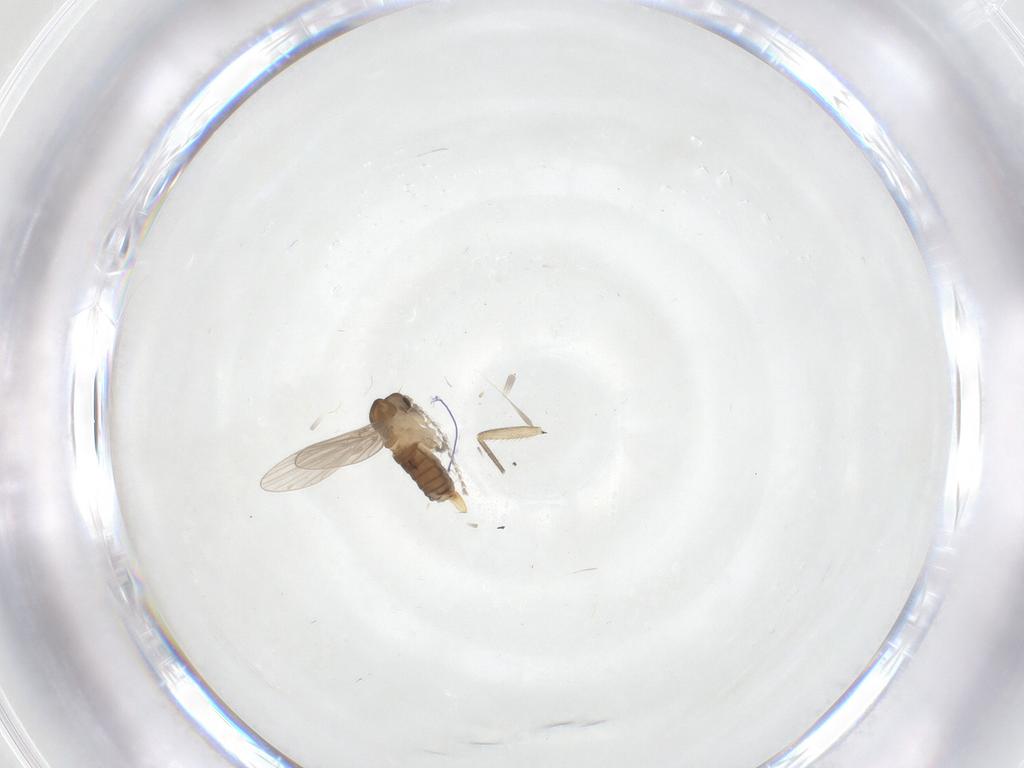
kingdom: Animalia
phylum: Arthropoda
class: Insecta
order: Diptera
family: Psychodidae
